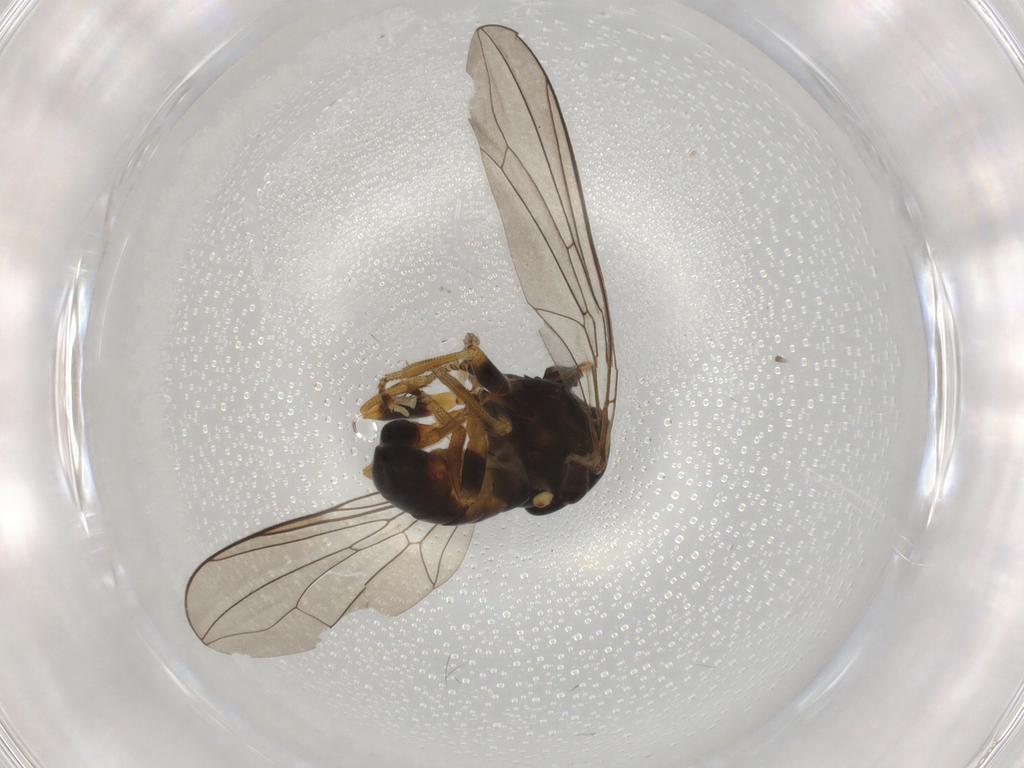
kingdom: Animalia
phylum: Arthropoda
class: Insecta
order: Diptera
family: Pipunculidae
